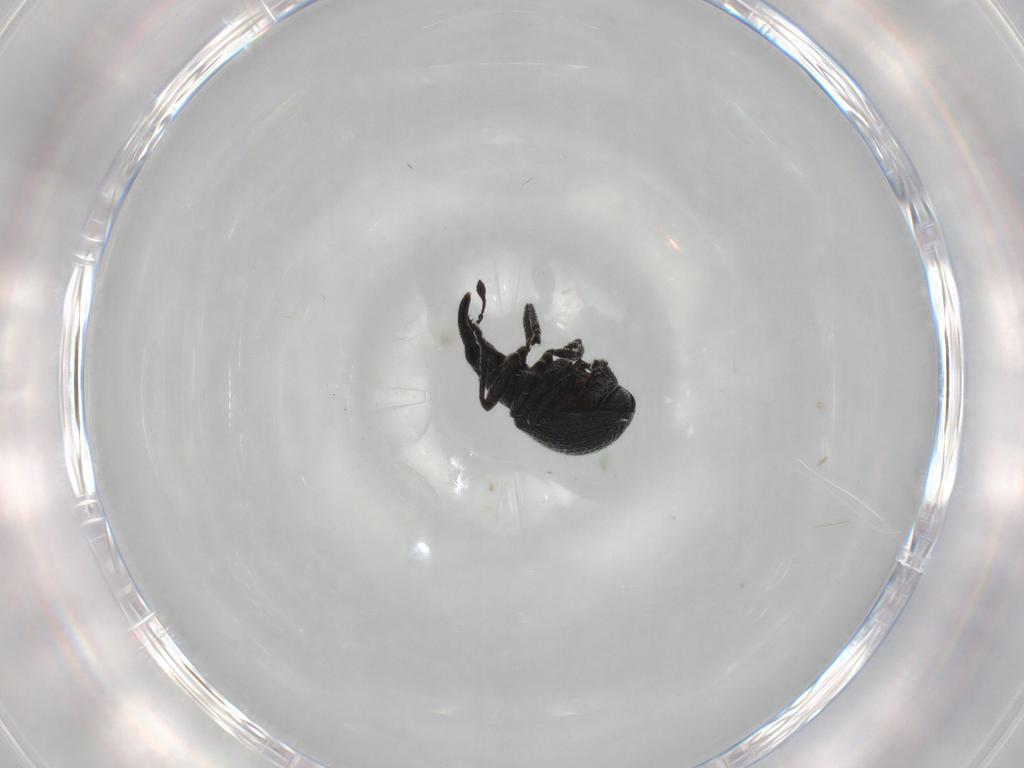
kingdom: Animalia
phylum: Arthropoda
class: Insecta
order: Coleoptera
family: Brentidae
